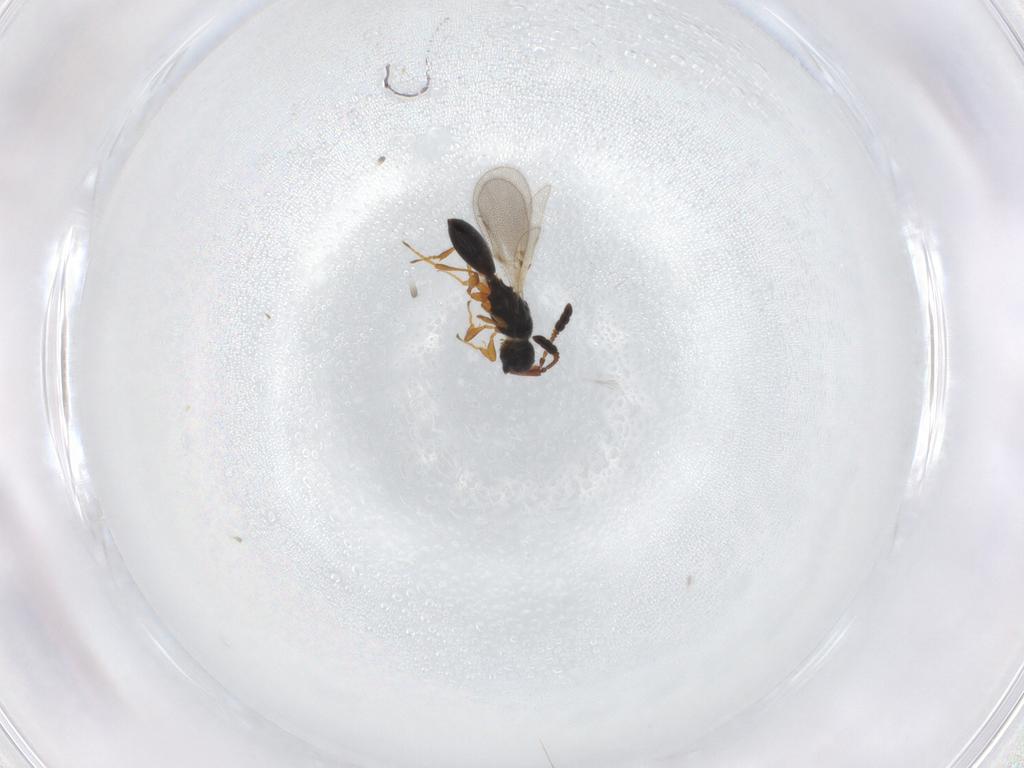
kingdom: Animalia
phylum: Arthropoda
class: Insecta
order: Hymenoptera
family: Diapriidae
